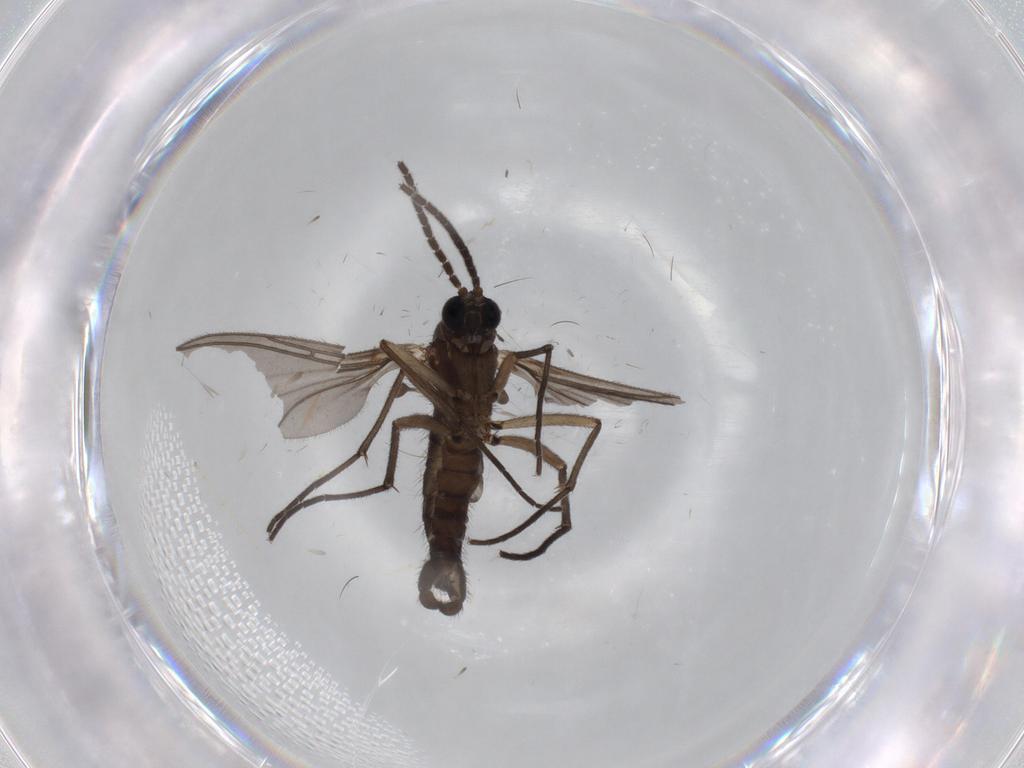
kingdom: Animalia
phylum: Arthropoda
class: Insecta
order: Diptera
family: Sciaridae
